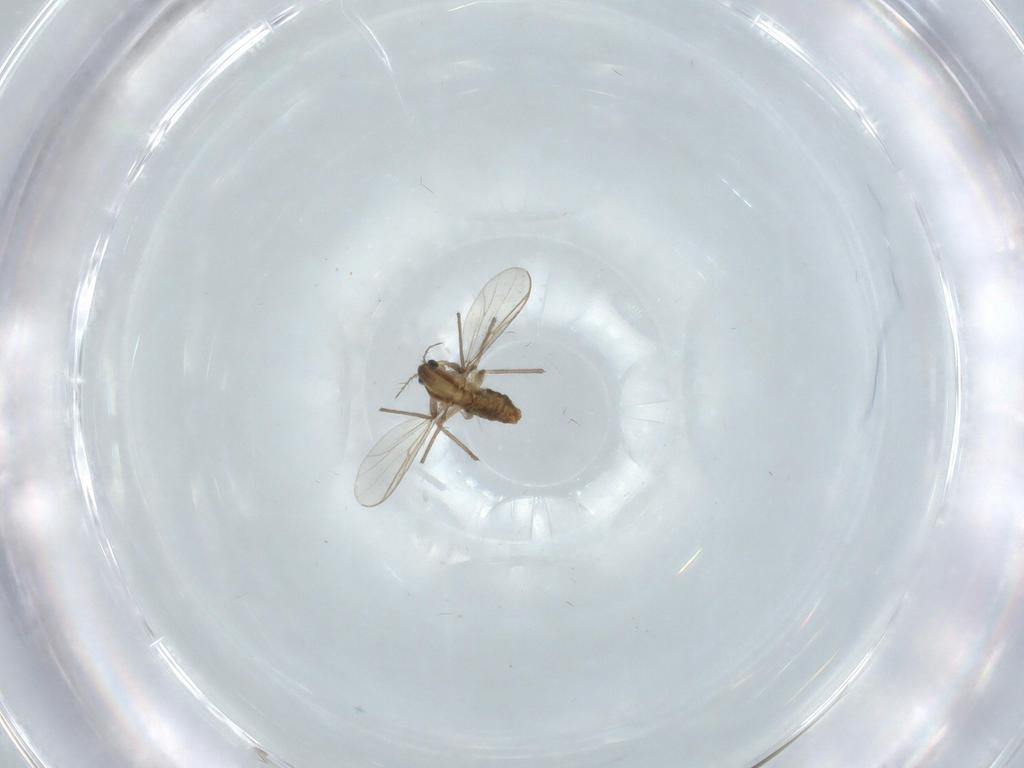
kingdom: Animalia
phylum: Arthropoda
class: Insecta
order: Diptera
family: Chironomidae
